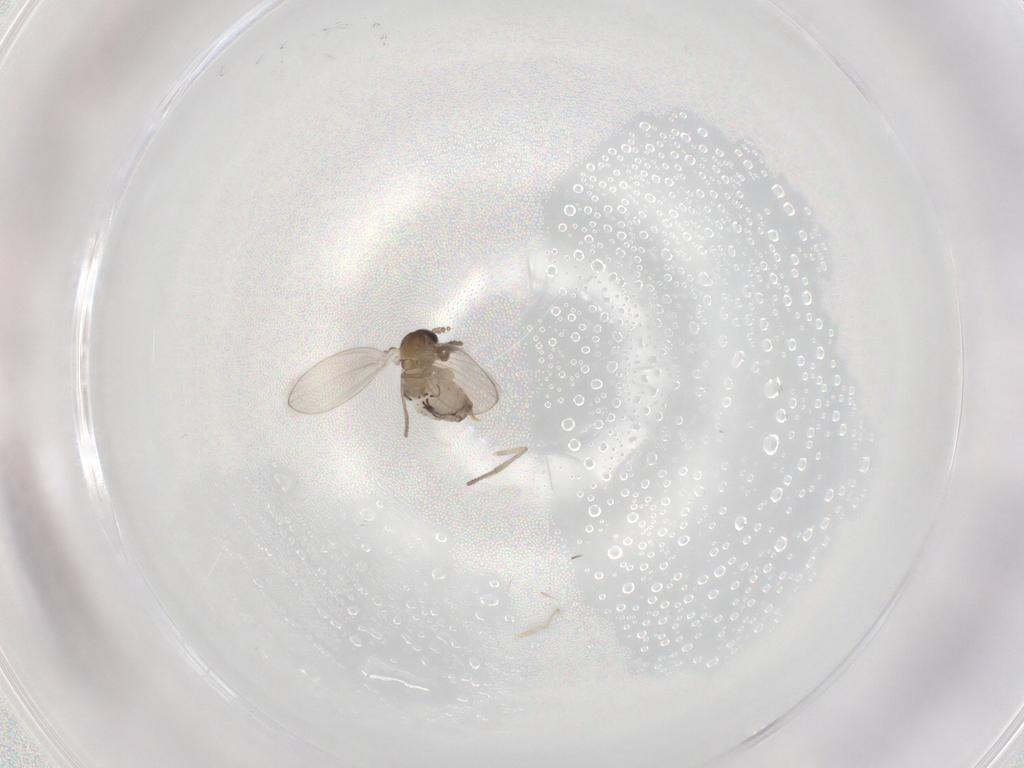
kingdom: Animalia
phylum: Arthropoda
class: Insecta
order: Diptera
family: Psychodidae
